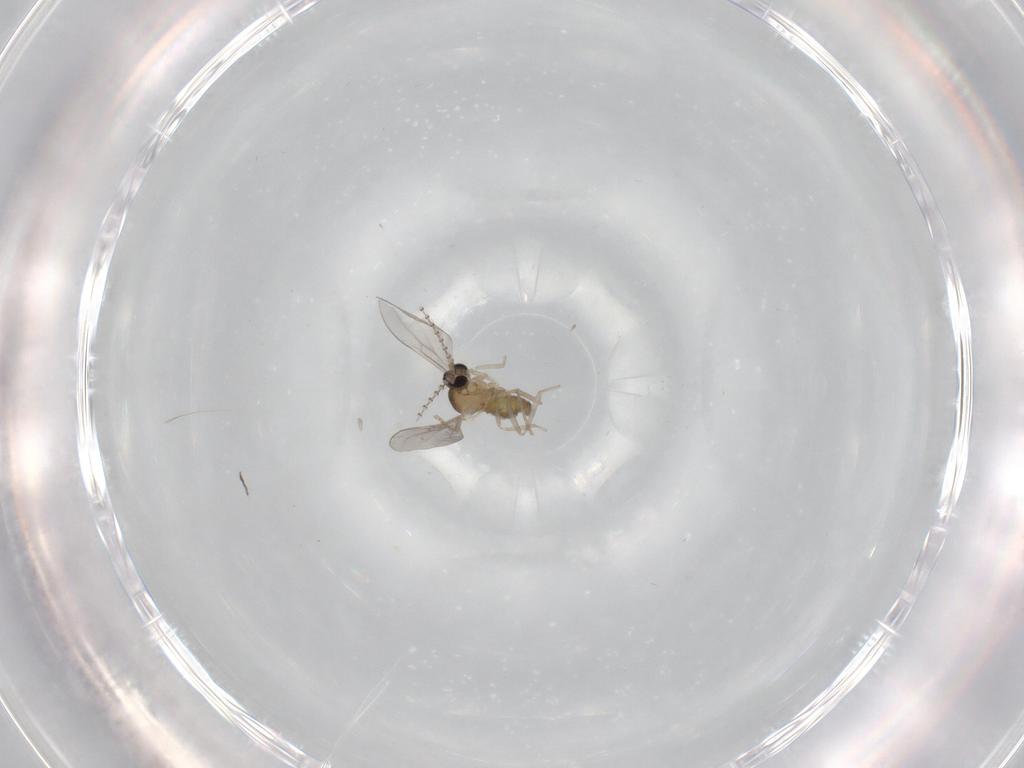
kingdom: Animalia
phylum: Arthropoda
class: Insecta
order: Diptera
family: Cecidomyiidae
